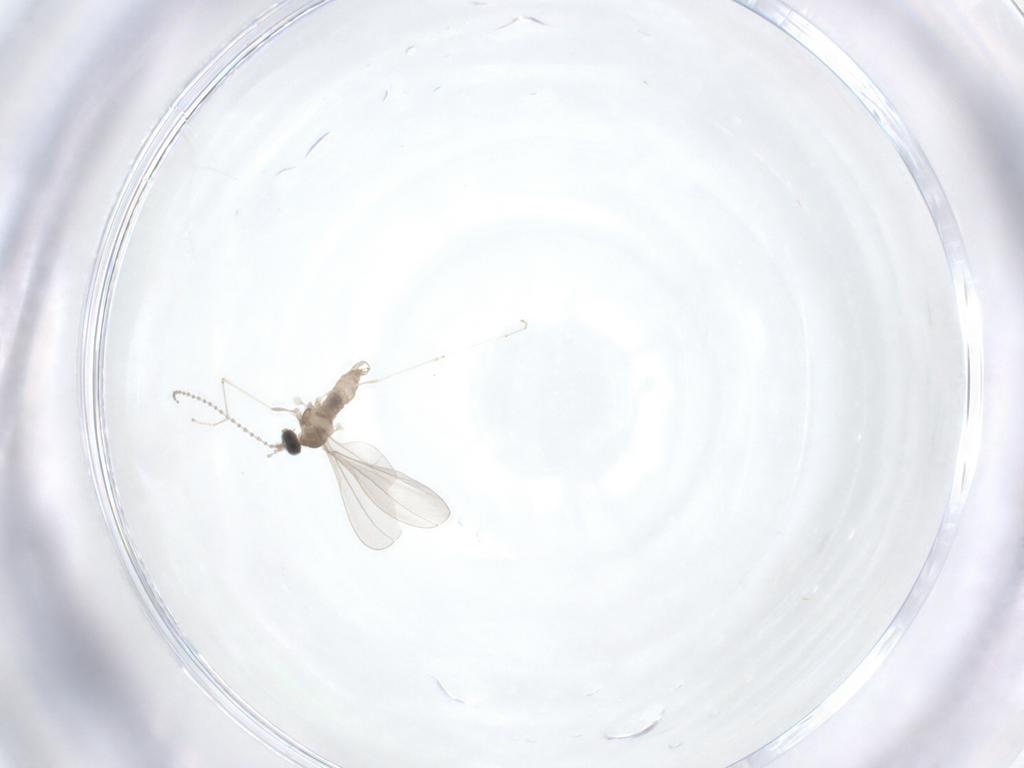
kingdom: Animalia
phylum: Arthropoda
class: Insecta
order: Diptera
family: Cecidomyiidae
